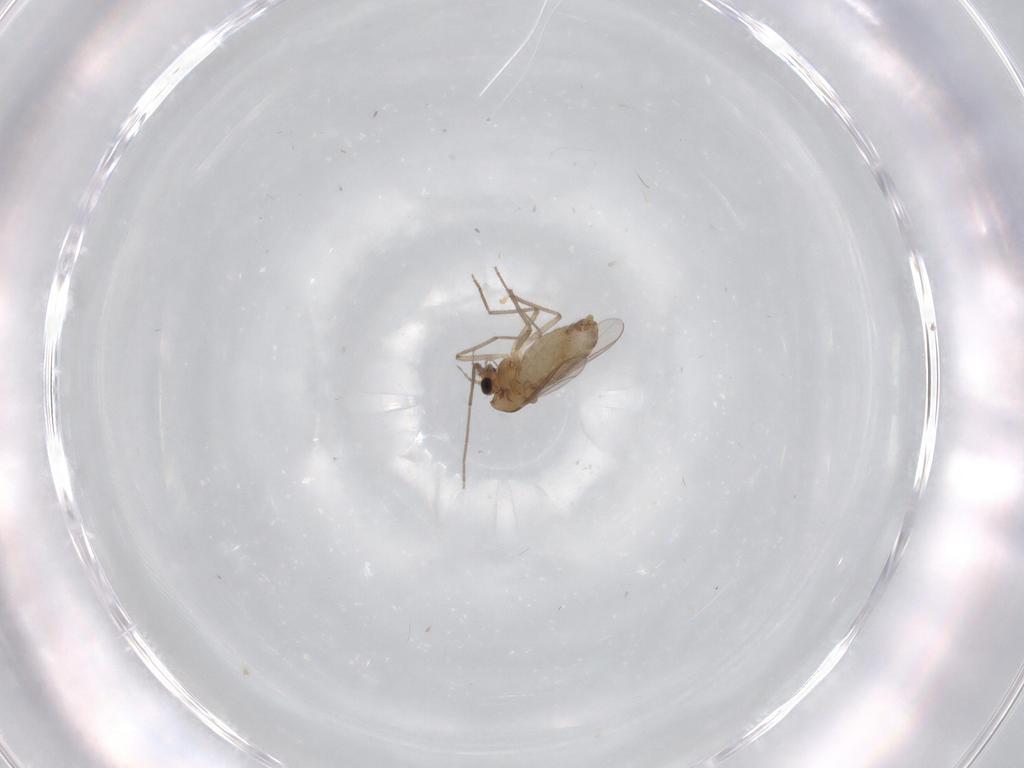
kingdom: Animalia
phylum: Arthropoda
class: Insecta
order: Diptera
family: Chironomidae
